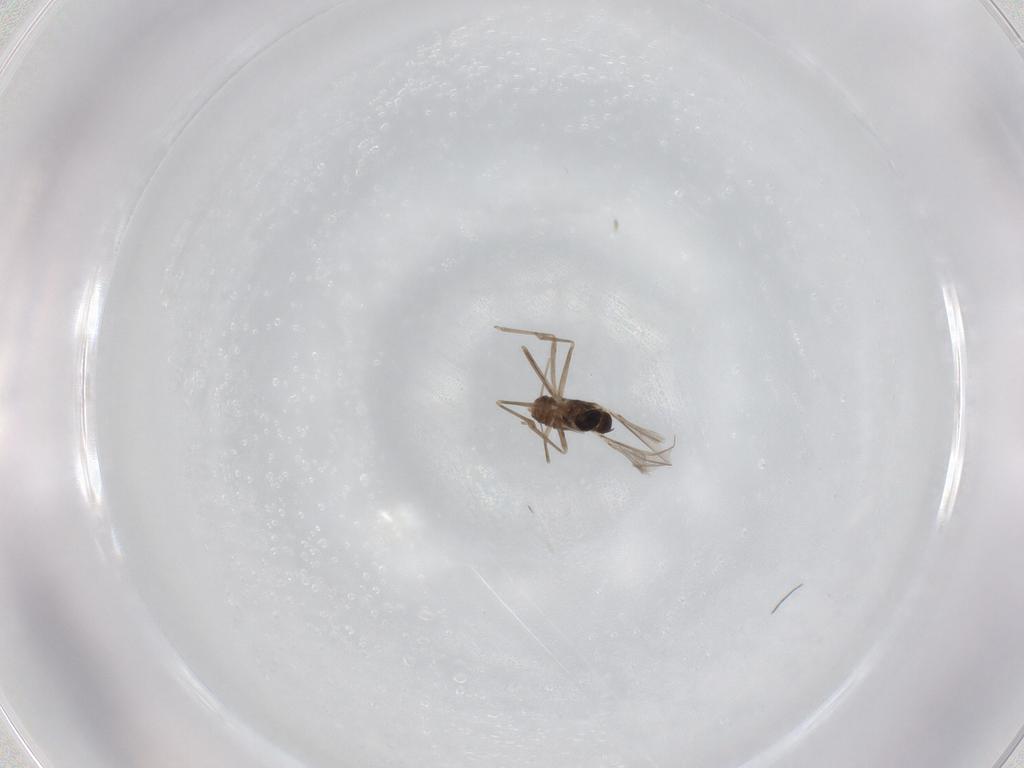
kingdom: Animalia
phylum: Arthropoda
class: Insecta
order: Diptera
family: Cecidomyiidae
